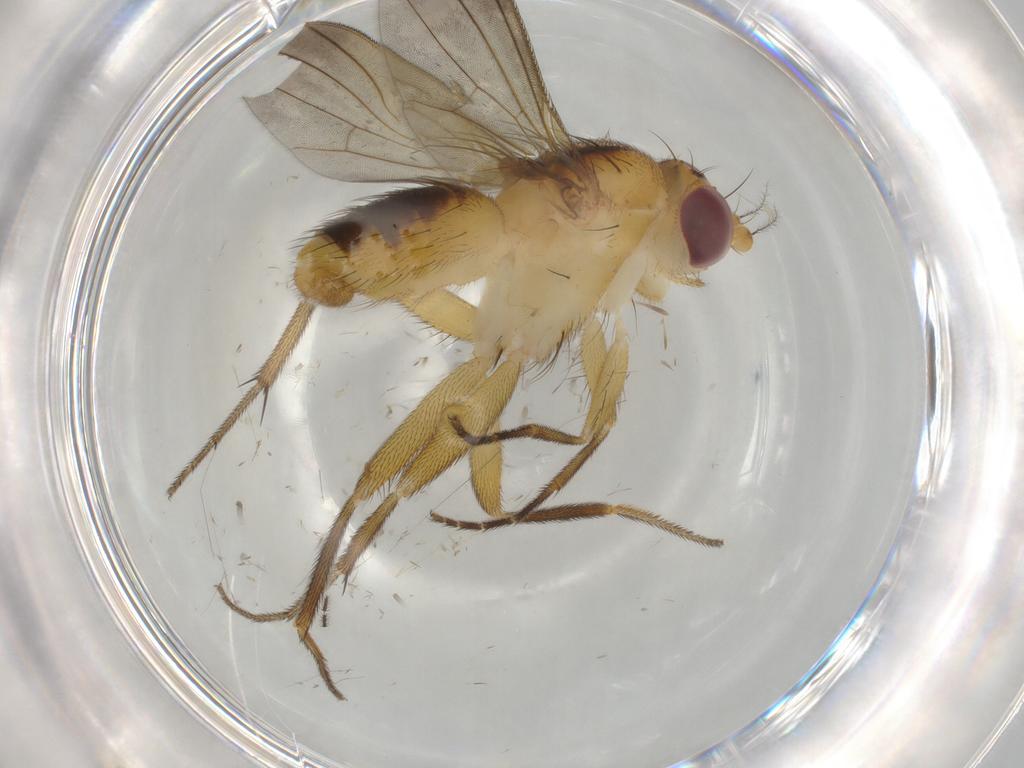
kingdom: Animalia
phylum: Arthropoda
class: Insecta
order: Diptera
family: Clusiidae
